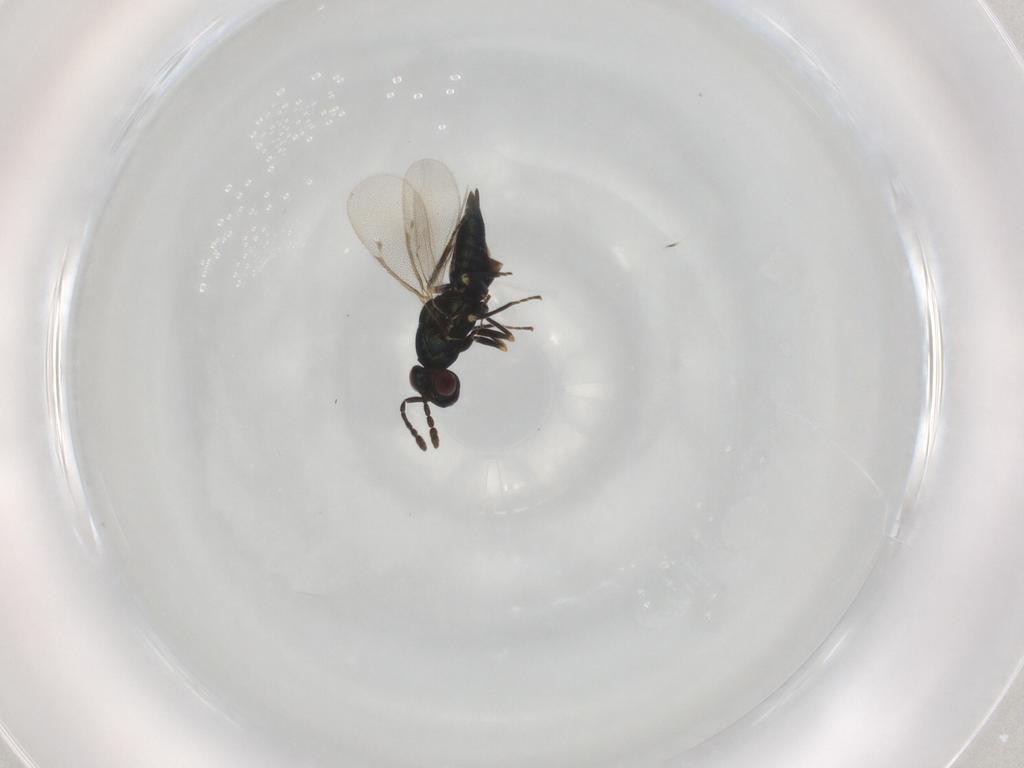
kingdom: Animalia
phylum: Arthropoda
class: Insecta
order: Hymenoptera
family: Eulophidae
